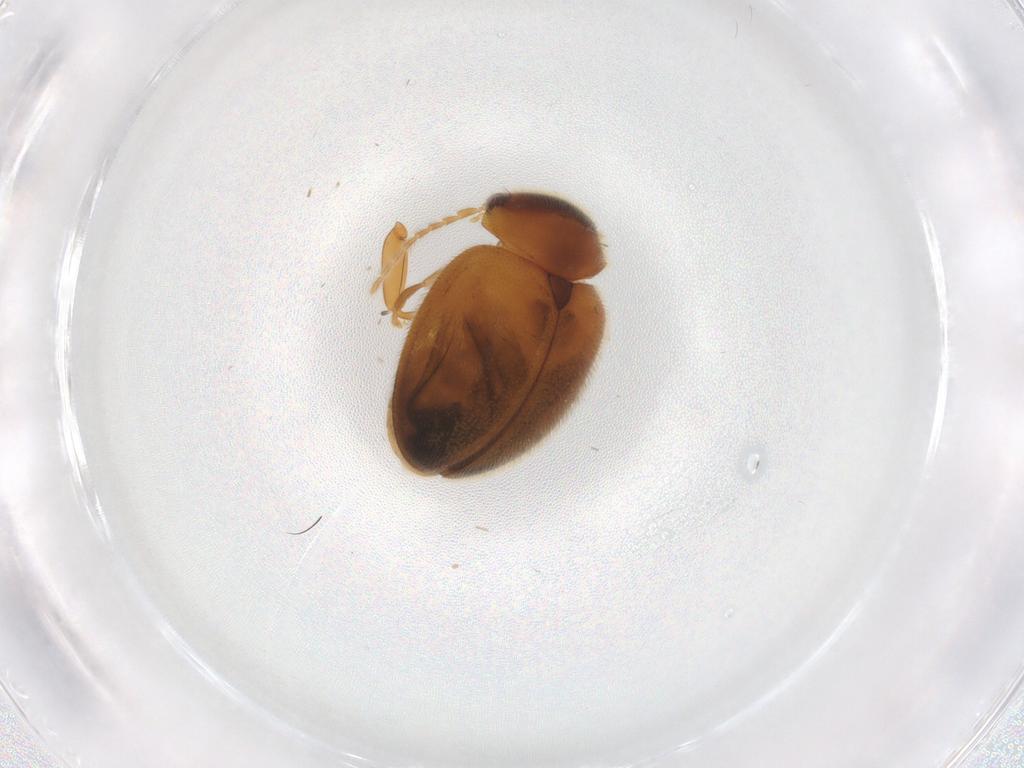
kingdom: Animalia
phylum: Arthropoda
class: Insecta
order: Coleoptera
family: Scirtidae
